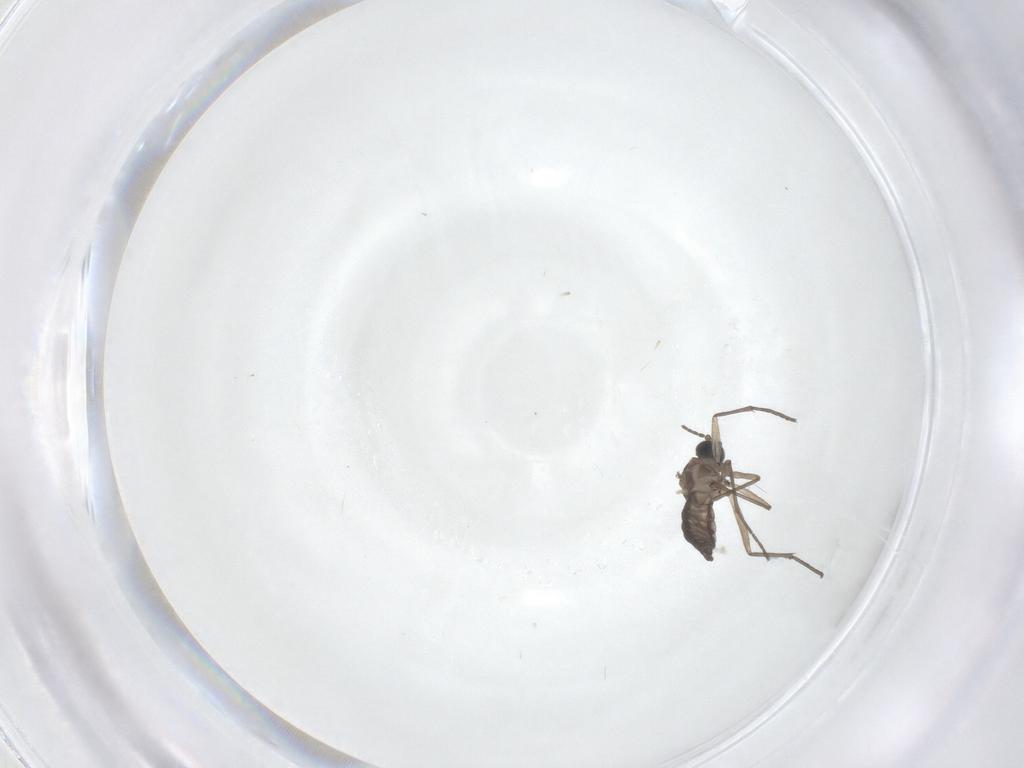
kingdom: Animalia
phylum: Arthropoda
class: Insecta
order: Diptera
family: Sciaridae
